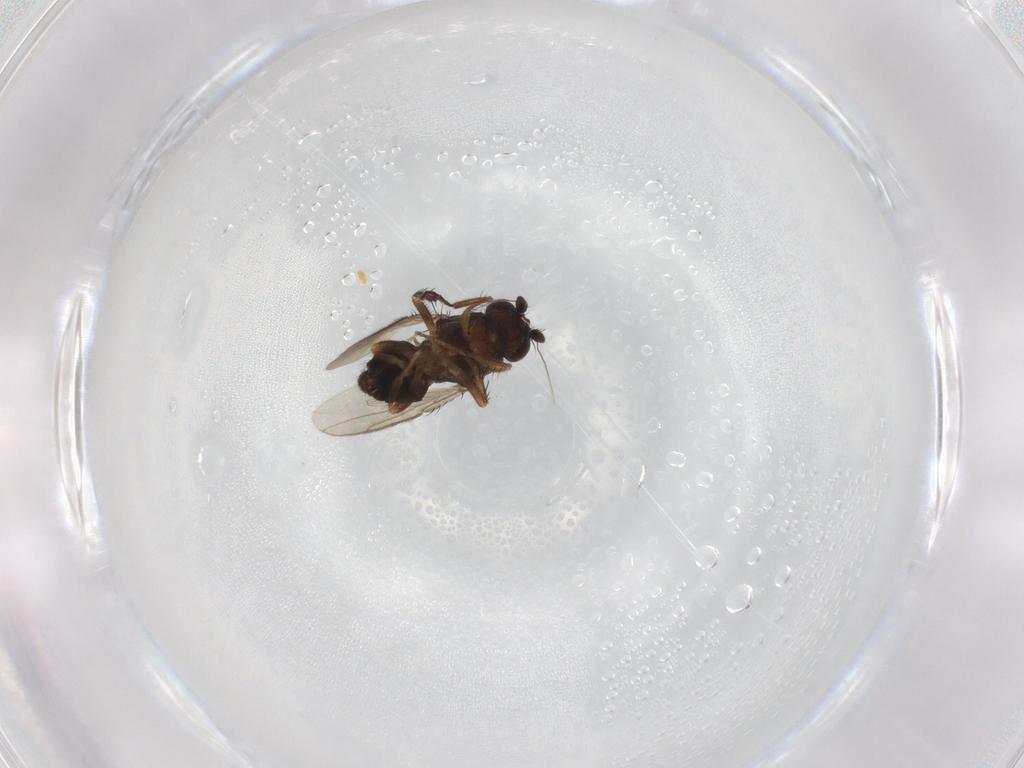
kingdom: Animalia
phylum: Arthropoda
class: Insecta
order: Diptera
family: Sphaeroceridae
